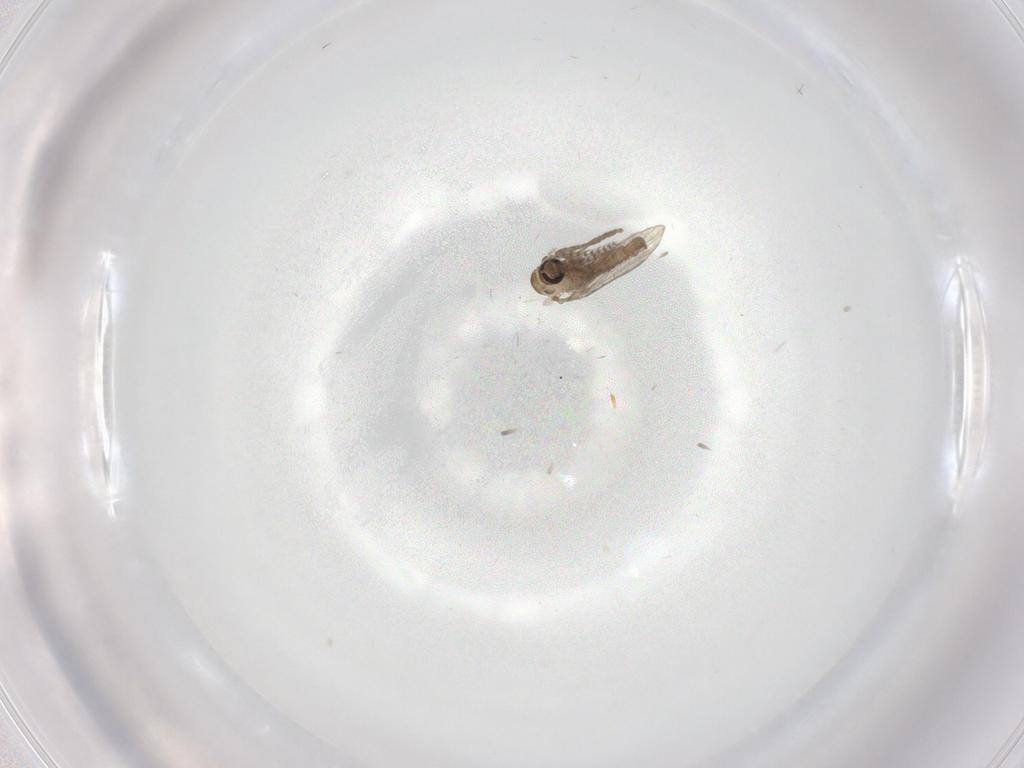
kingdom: Animalia
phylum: Arthropoda
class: Insecta
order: Diptera
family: Psychodidae
